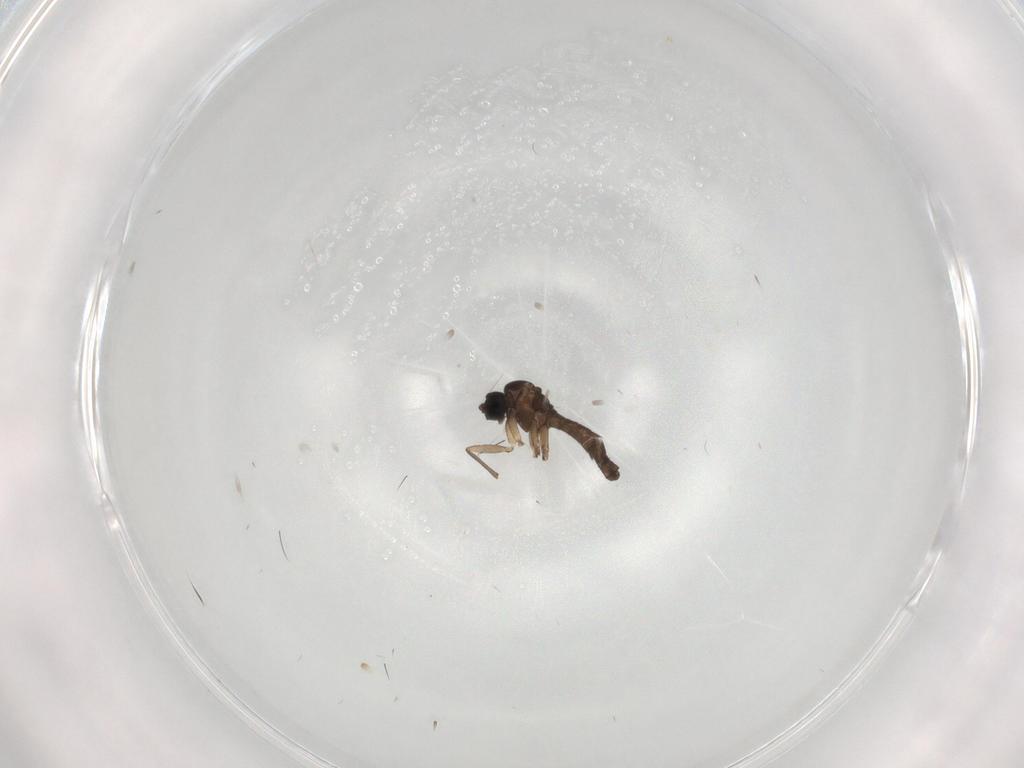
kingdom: Animalia
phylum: Arthropoda
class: Insecta
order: Diptera
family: Sciaridae
